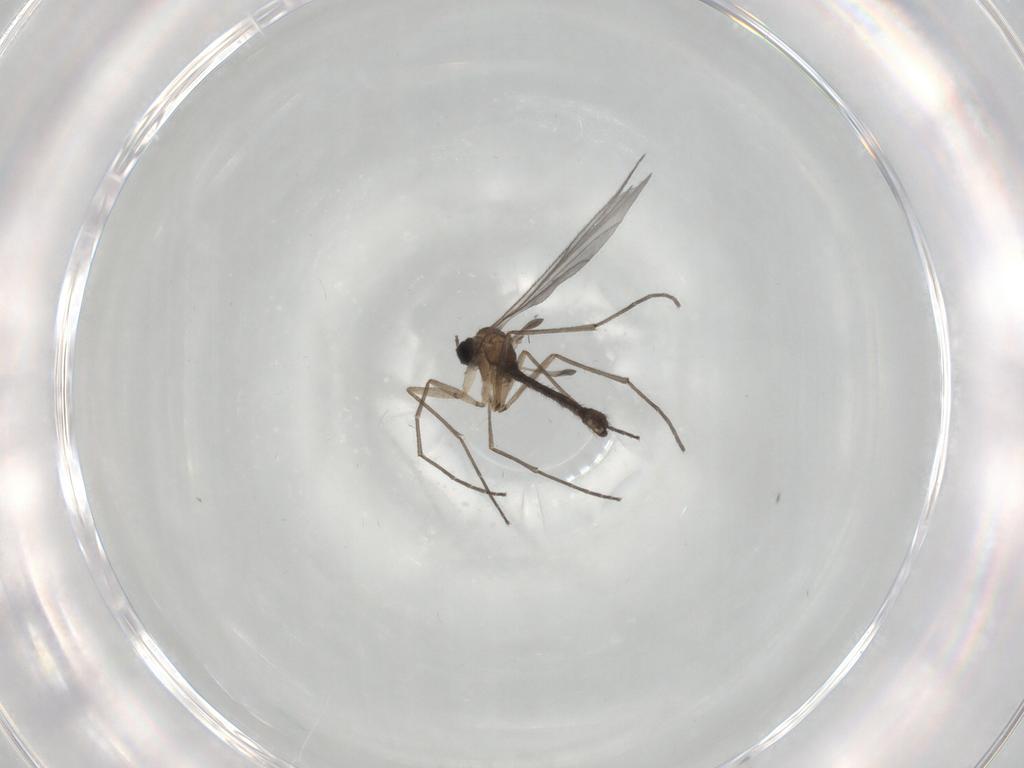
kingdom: Animalia
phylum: Arthropoda
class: Insecta
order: Diptera
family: Sciaridae
